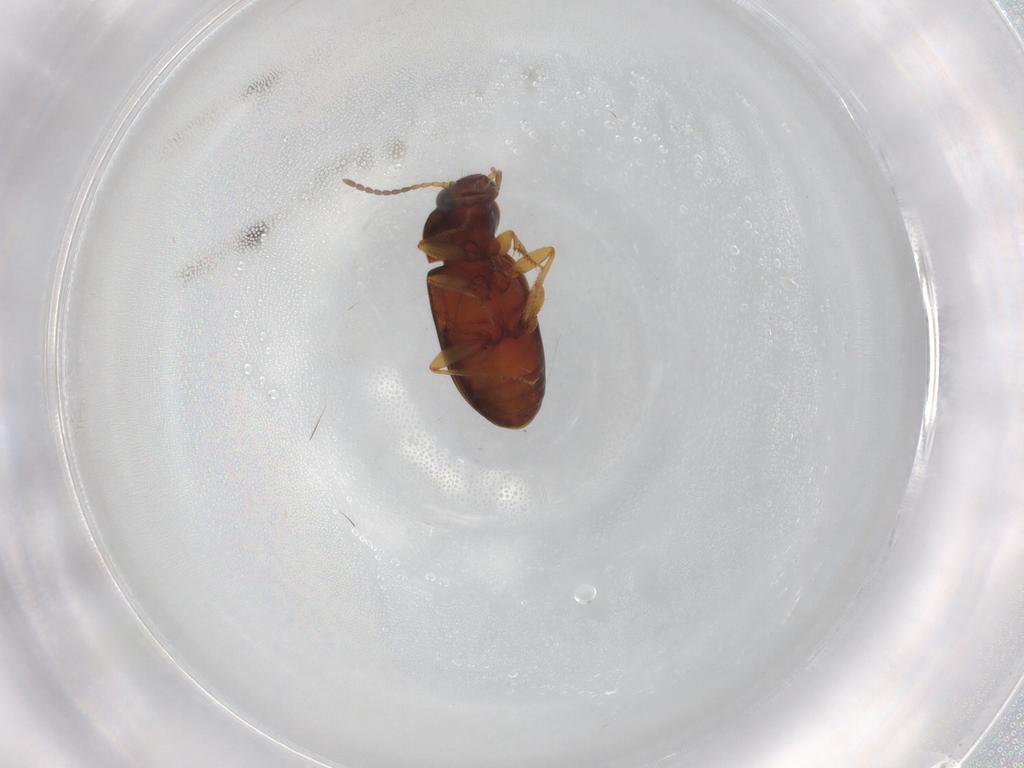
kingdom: Animalia
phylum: Arthropoda
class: Insecta
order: Coleoptera
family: Carabidae
